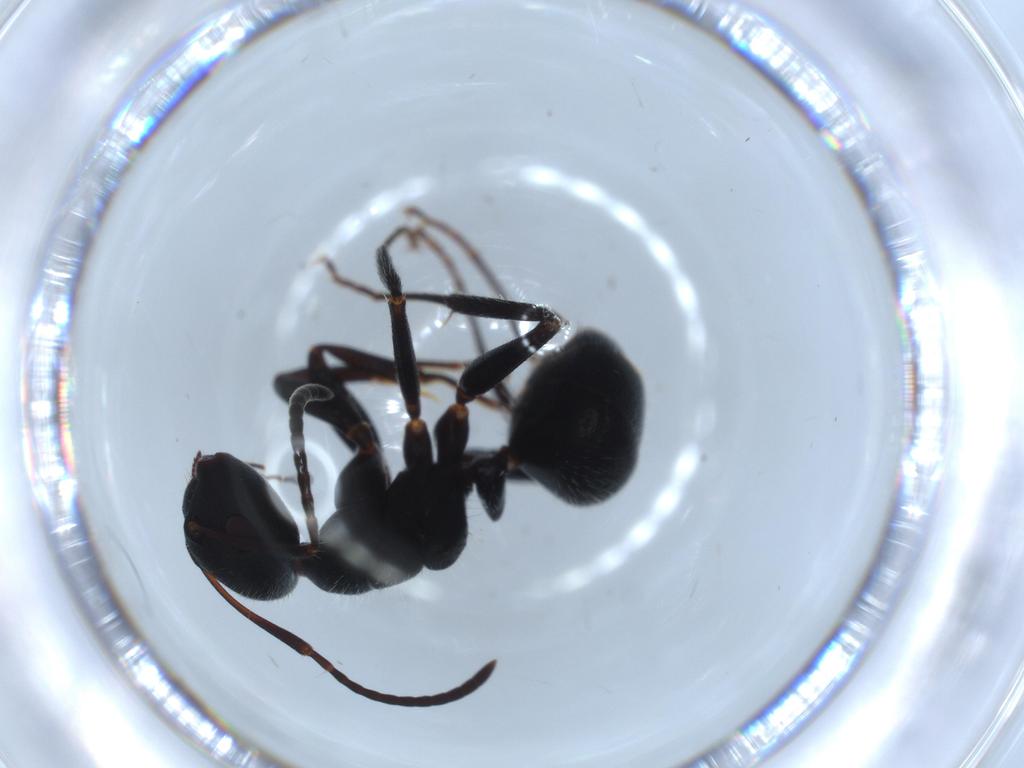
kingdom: Animalia
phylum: Arthropoda
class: Insecta
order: Hymenoptera
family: Formicidae
